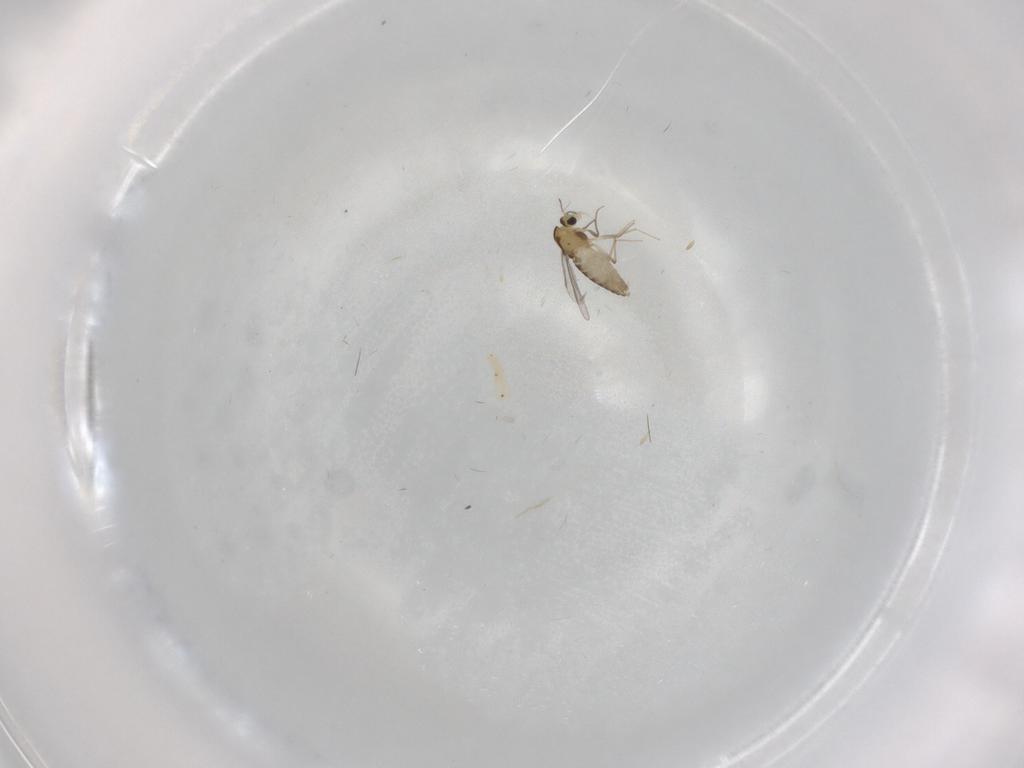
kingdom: Animalia
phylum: Arthropoda
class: Insecta
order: Diptera
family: Chironomidae
